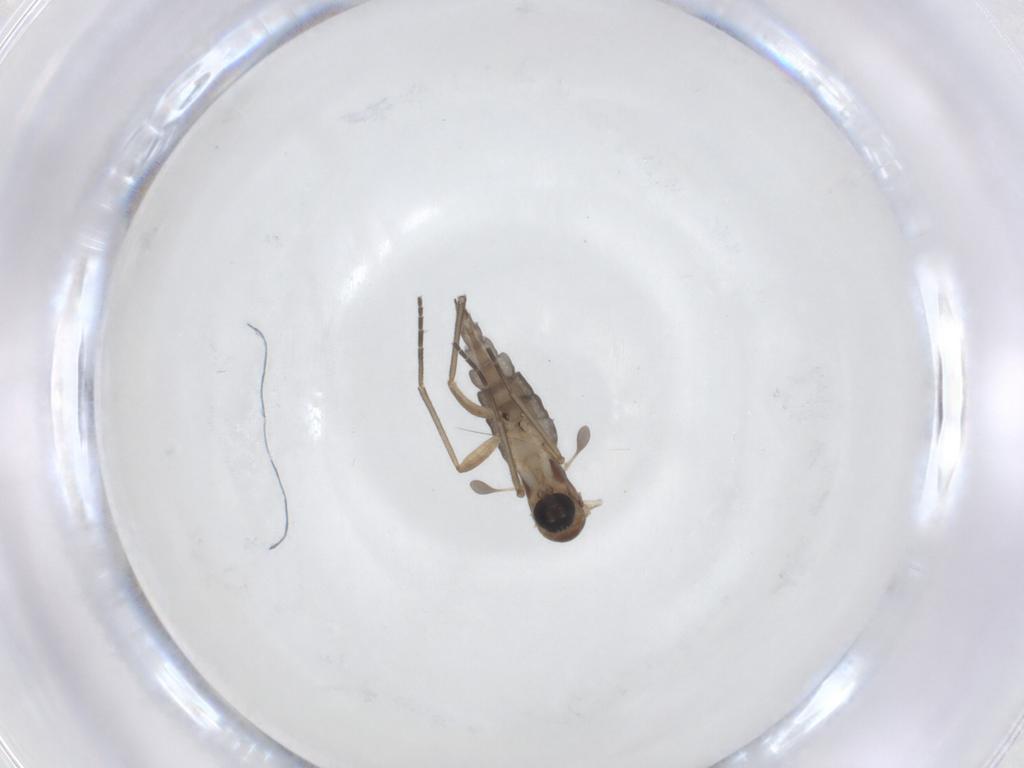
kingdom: Animalia
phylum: Arthropoda
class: Insecta
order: Diptera
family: Sciaridae
